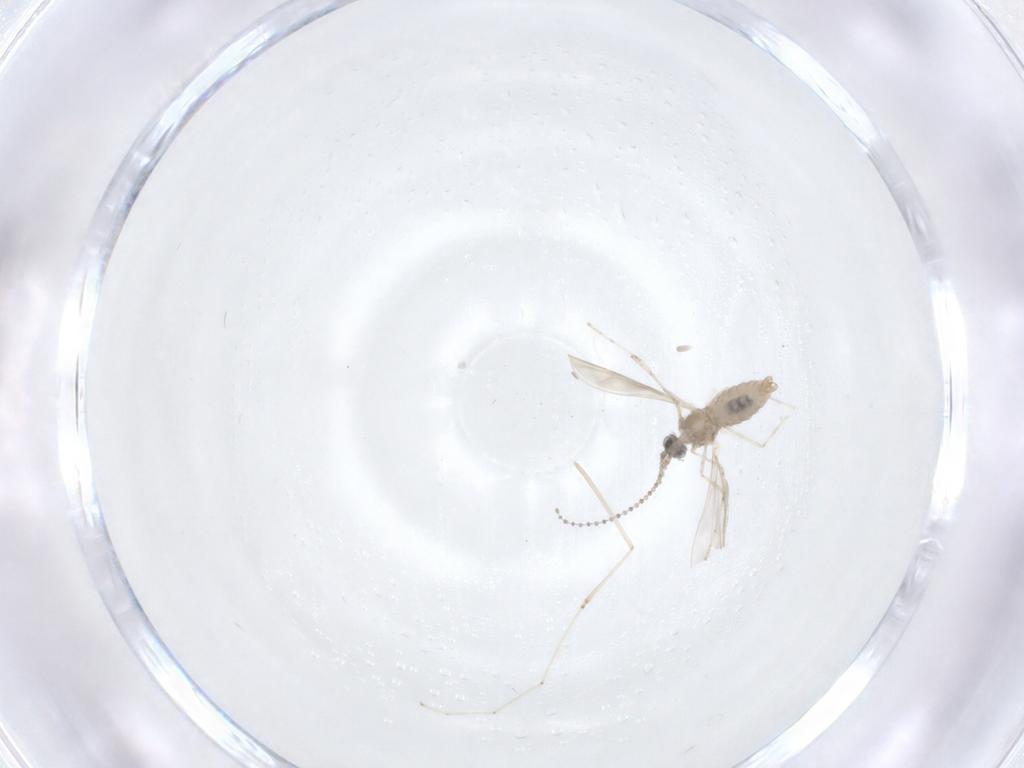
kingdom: Animalia
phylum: Arthropoda
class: Insecta
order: Diptera
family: Cecidomyiidae
